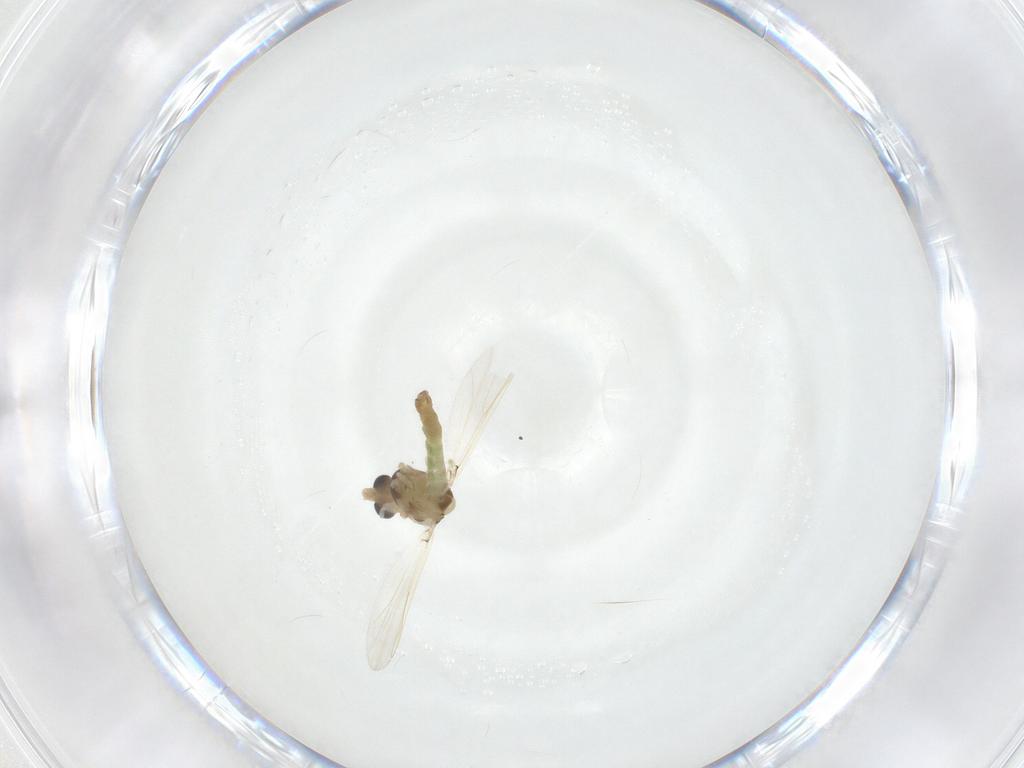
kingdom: Animalia
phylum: Arthropoda
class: Insecta
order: Diptera
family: Chironomidae
